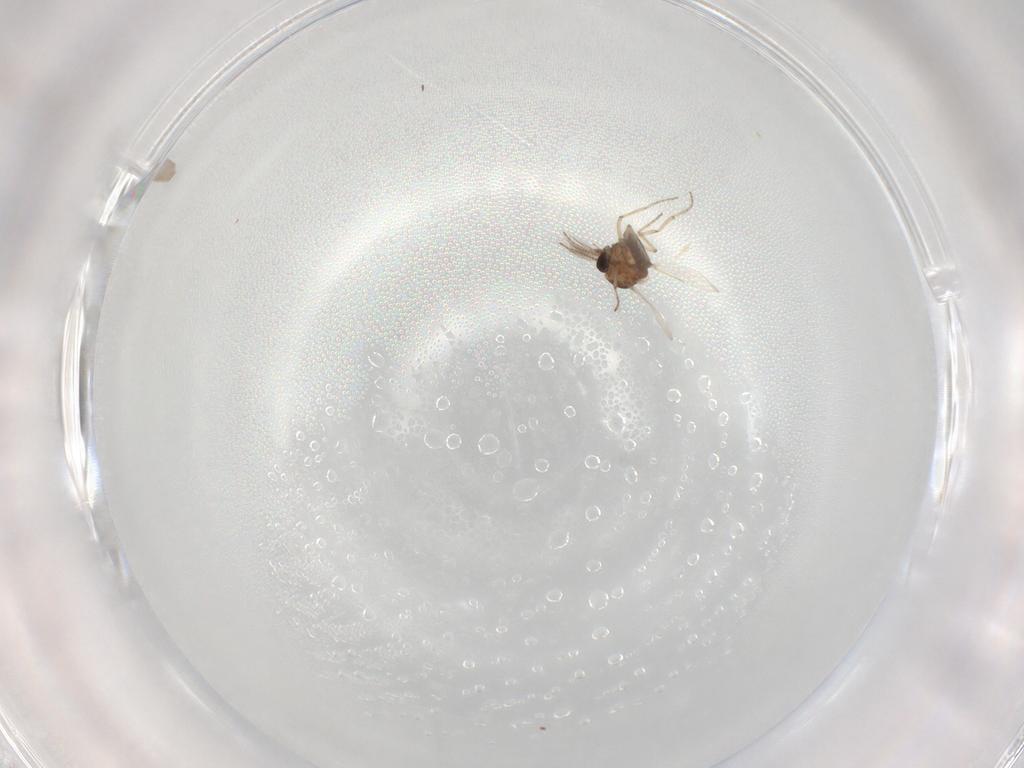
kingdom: Animalia
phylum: Arthropoda
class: Insecta
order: Diptera
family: Ceratopogonidae
